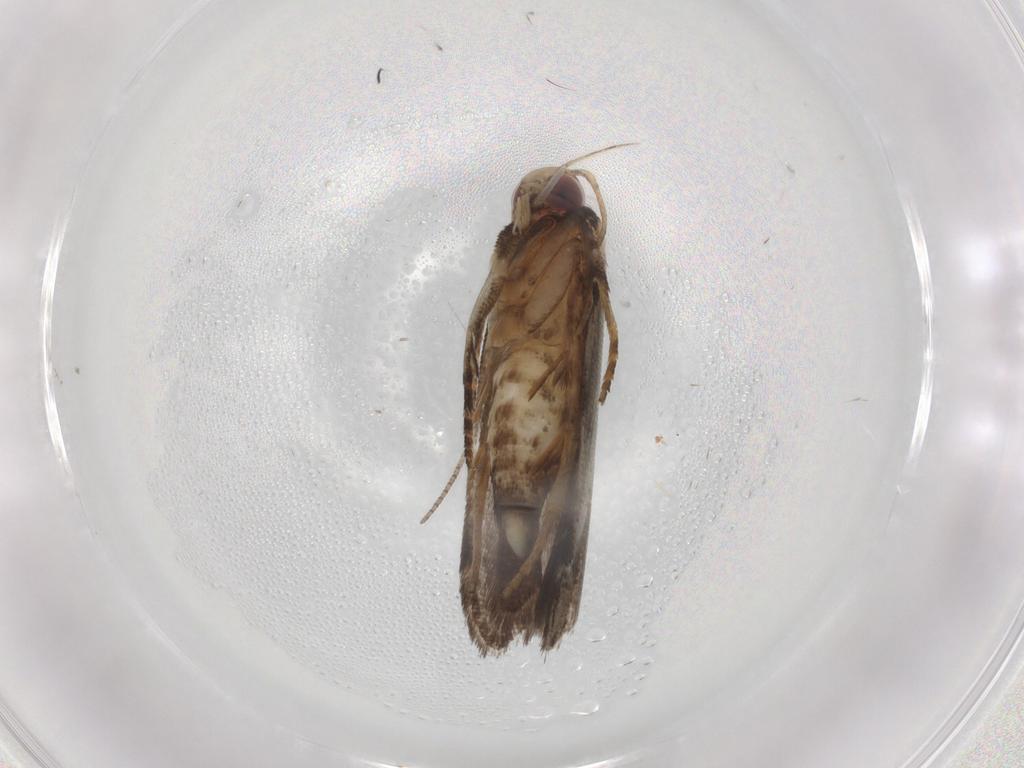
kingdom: Animalia
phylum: Arthropoda
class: Insecta
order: Lepidoptera
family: Gelechiidae
